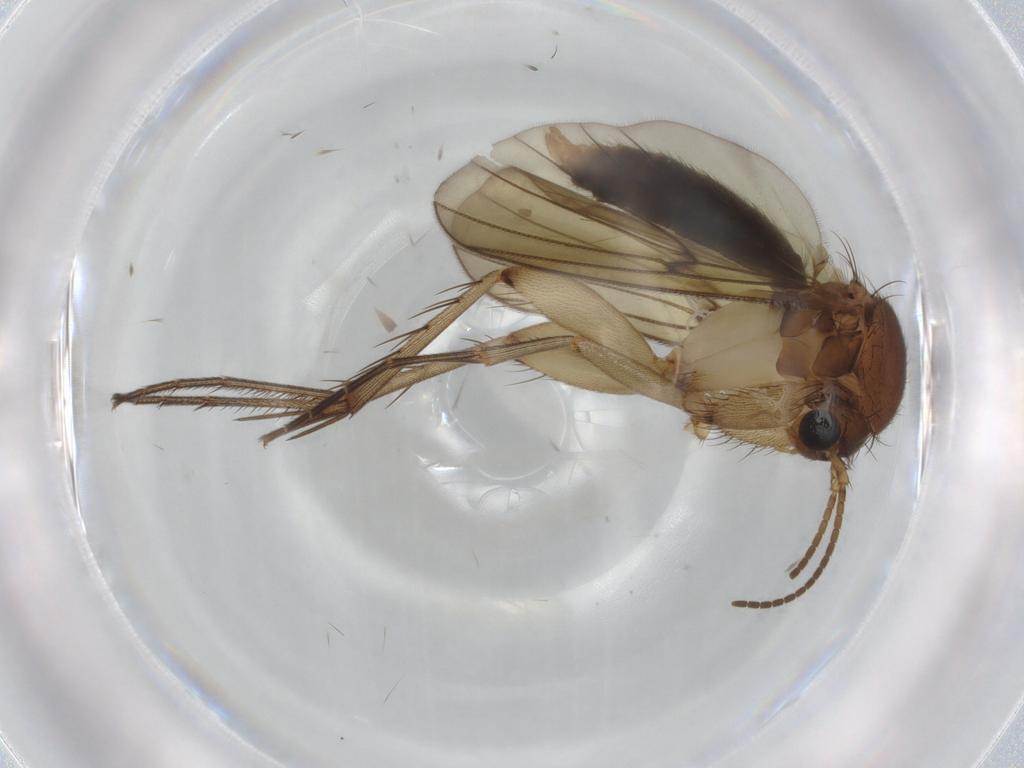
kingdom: Animalia
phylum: Arthropoda
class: Insecta
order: Diptera
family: Mycetophilidae
